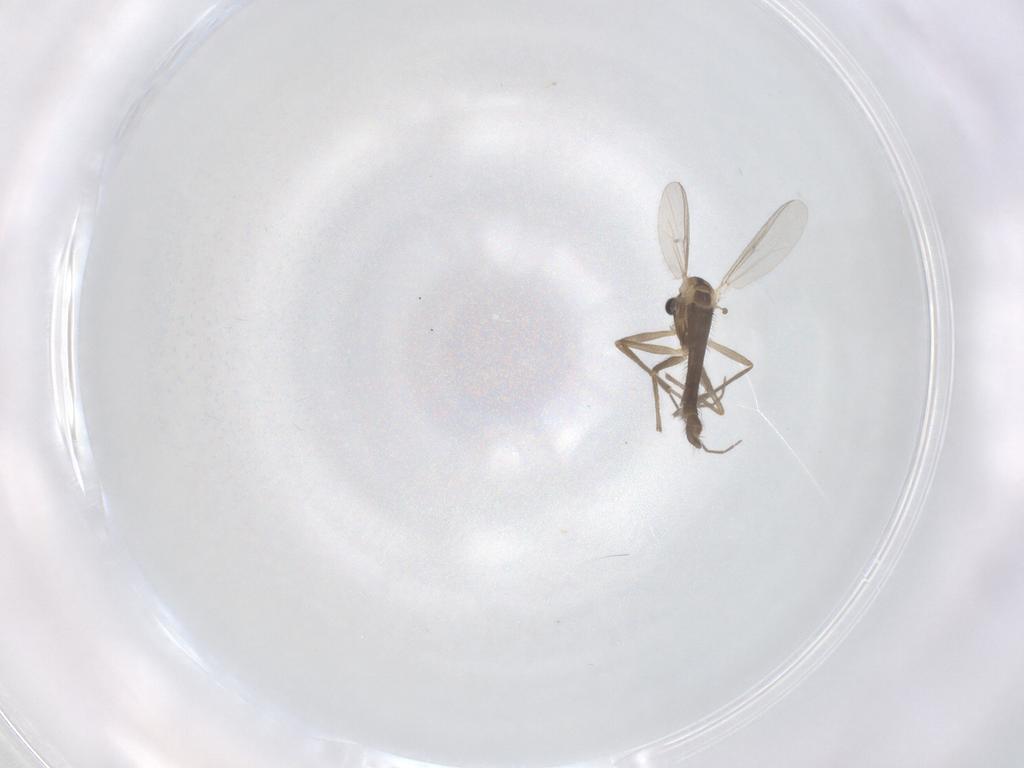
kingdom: Animalia
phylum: Arthropoda
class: Insecta
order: Diptera
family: Chironomidae
